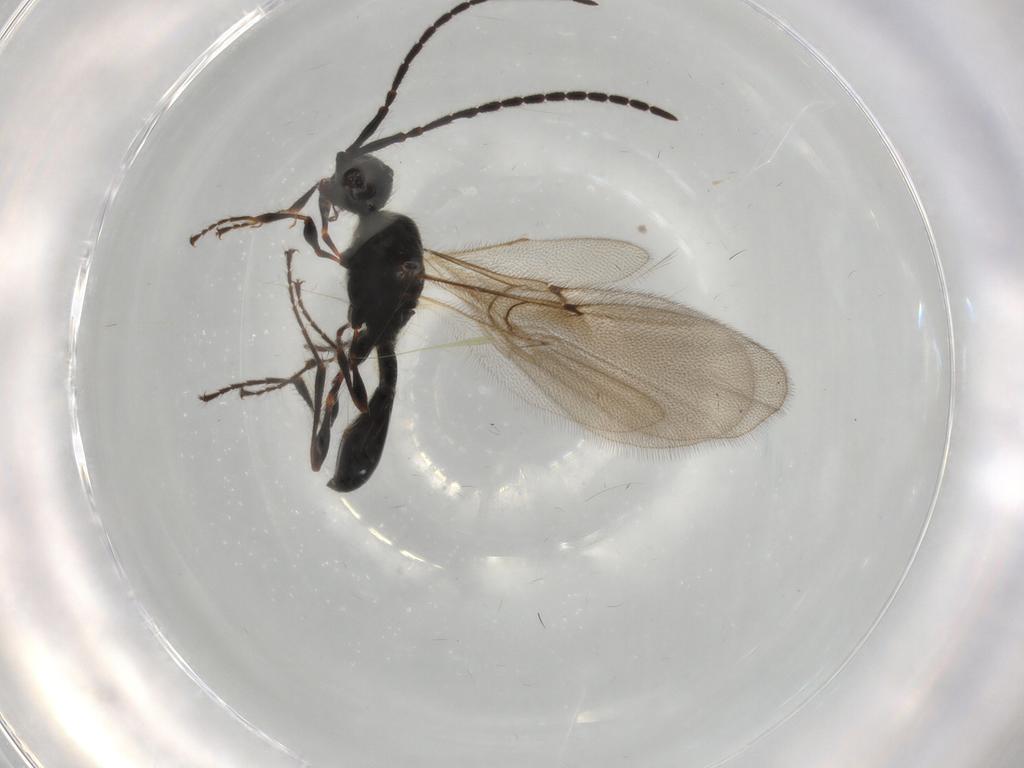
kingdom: Animalia
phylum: Arthropoda
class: Insecta
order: Hymenoptera
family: Diapriidae
